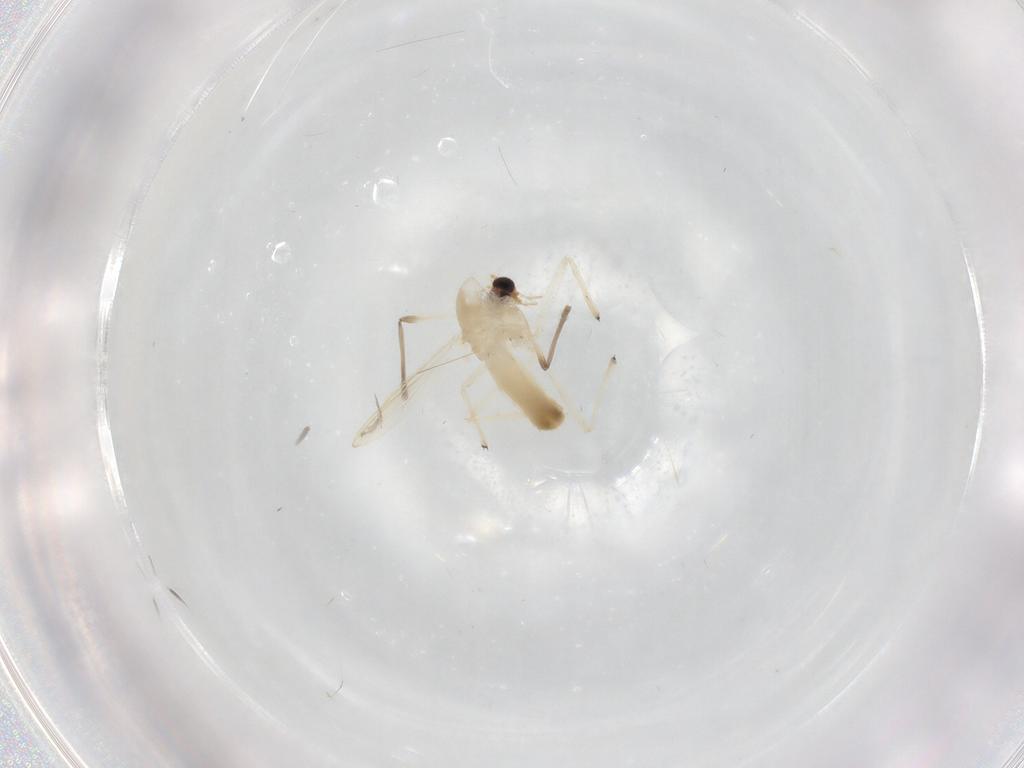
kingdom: Animalia
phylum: Arthropoda
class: Insecta
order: Diptera
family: Chironomidae
